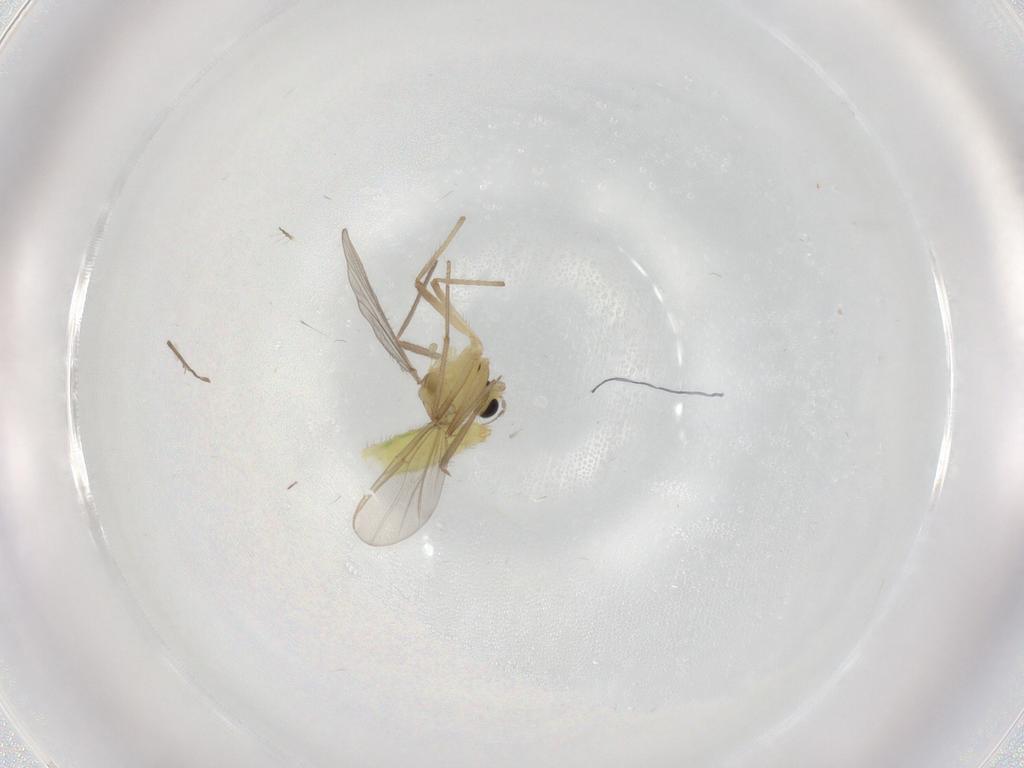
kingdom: Animalia
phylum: Arthropoda
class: Insecta
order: Diptera
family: Chironomidae
